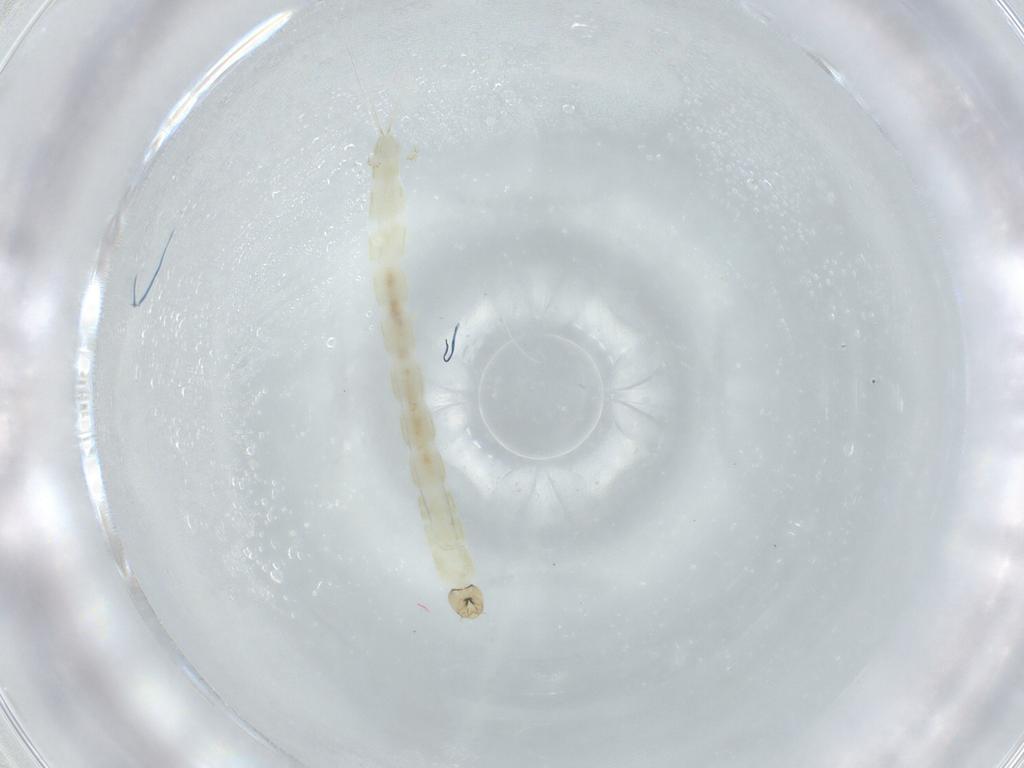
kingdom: Animalia
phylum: Arthropoda
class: Insecta
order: Diptera
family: Chironomidae
